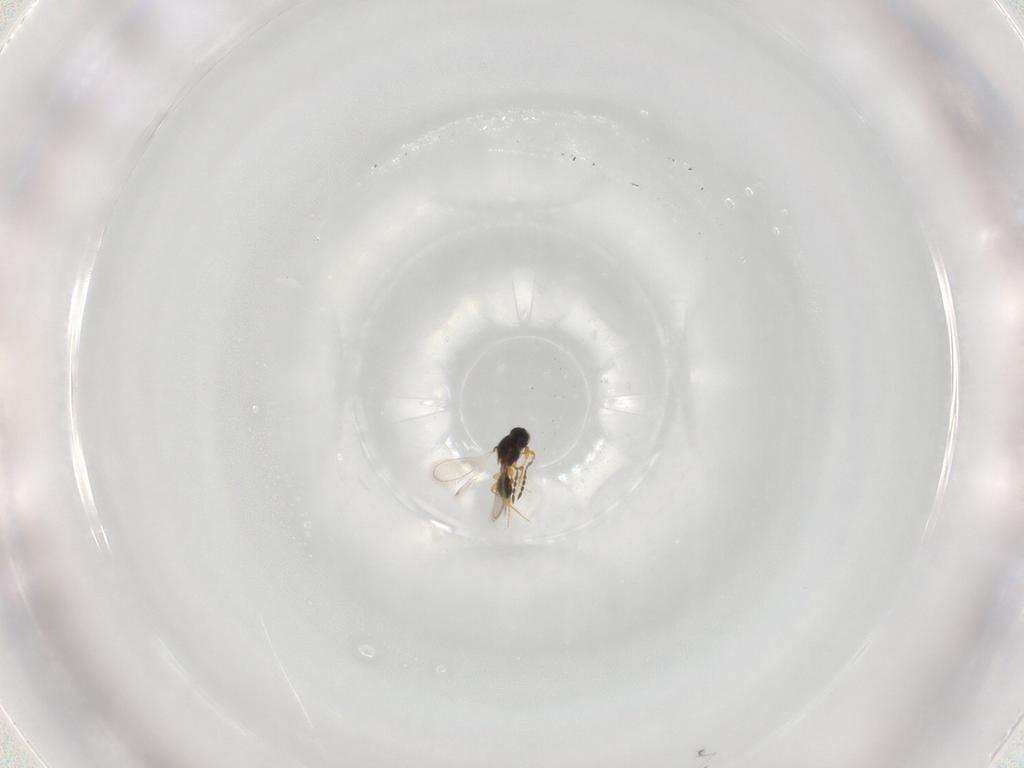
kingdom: Animalia
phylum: Arthropoda
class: Insecta
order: Hymenoptera
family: Platygastridae
